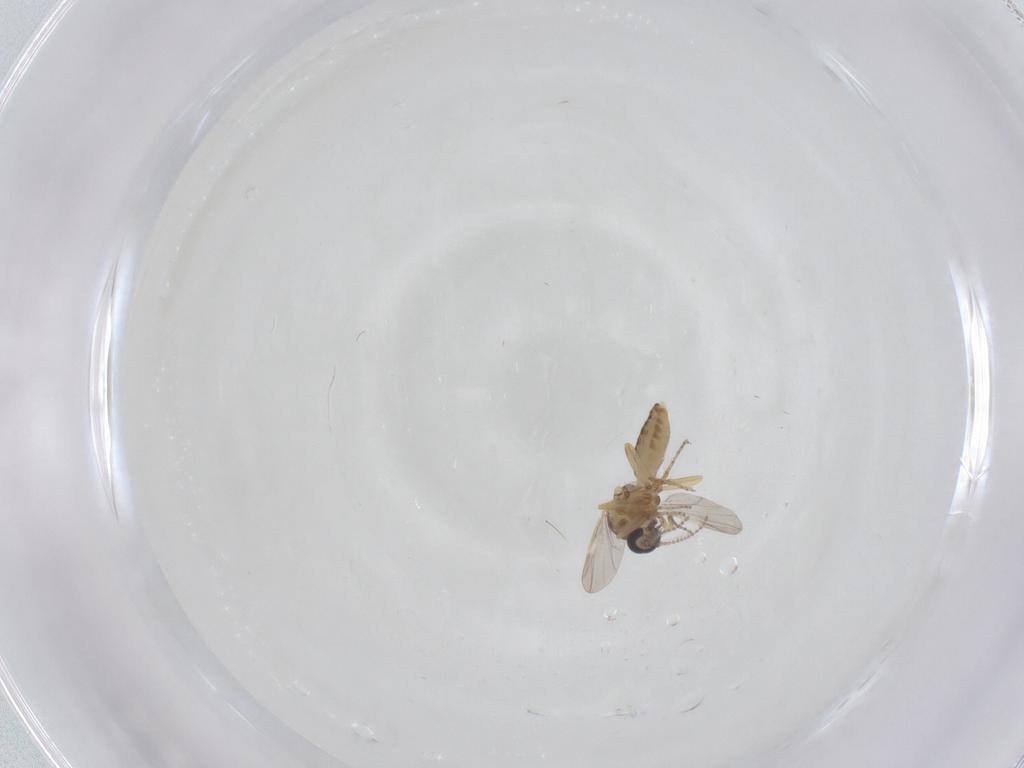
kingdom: Animalia
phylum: Arthropoda
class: Insecta
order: Diptera
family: Ceratopogonidae
